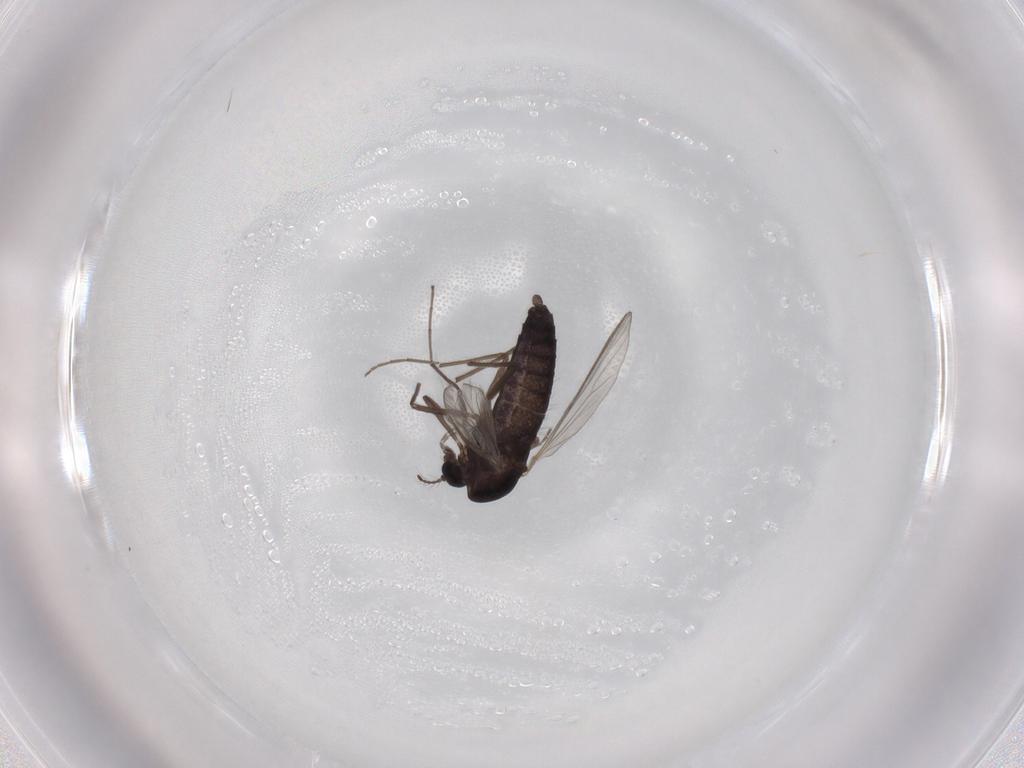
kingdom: Animalia
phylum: Arthropoda
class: Insecta
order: Diptera
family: Chironomidae
